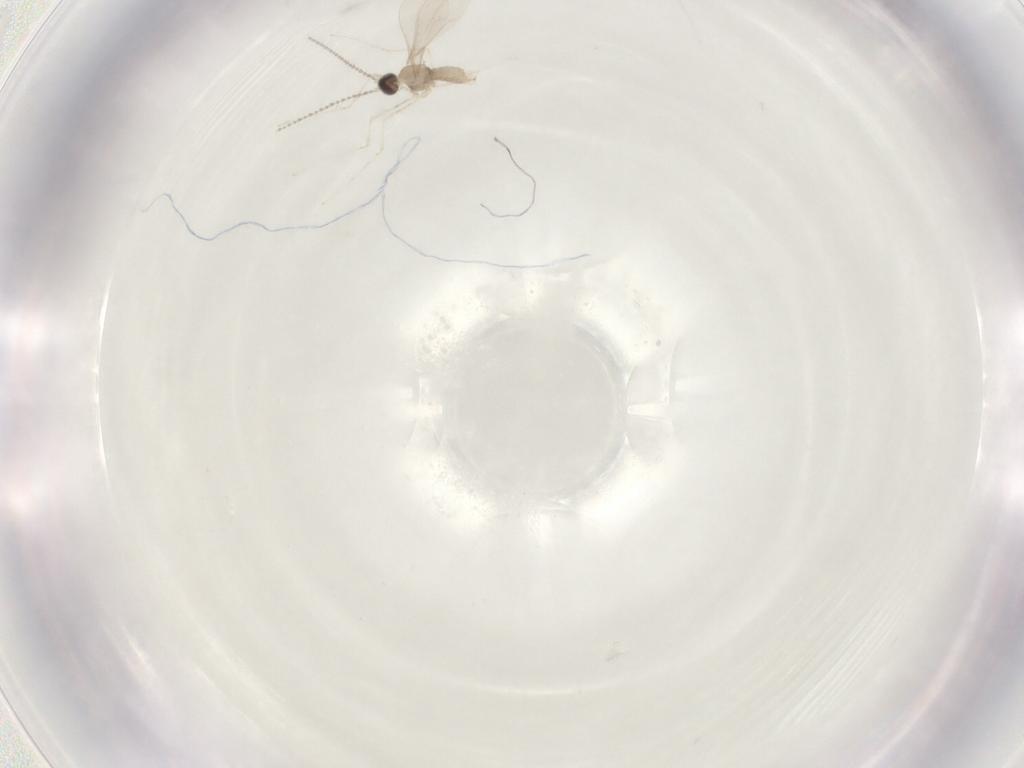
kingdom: Animalia
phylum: Arthropoda
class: Insecta
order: Diptera
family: Cecidomyiidae
